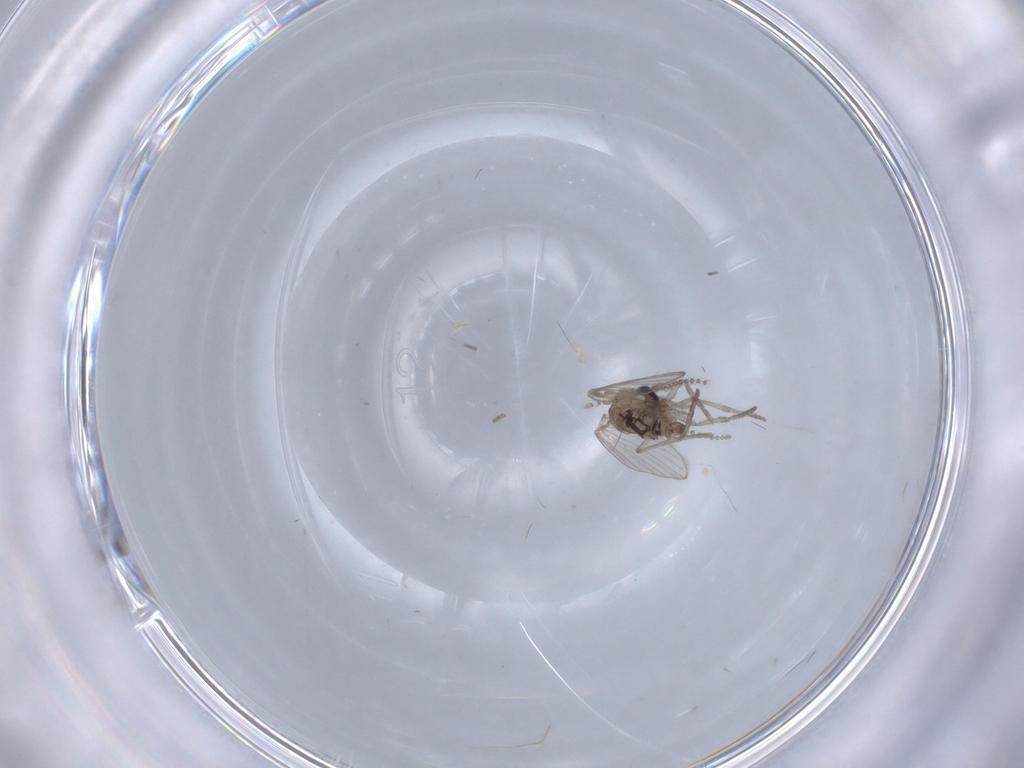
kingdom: Animalia
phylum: Arthropoda
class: Insecta
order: Diptera
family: Psychodidae
